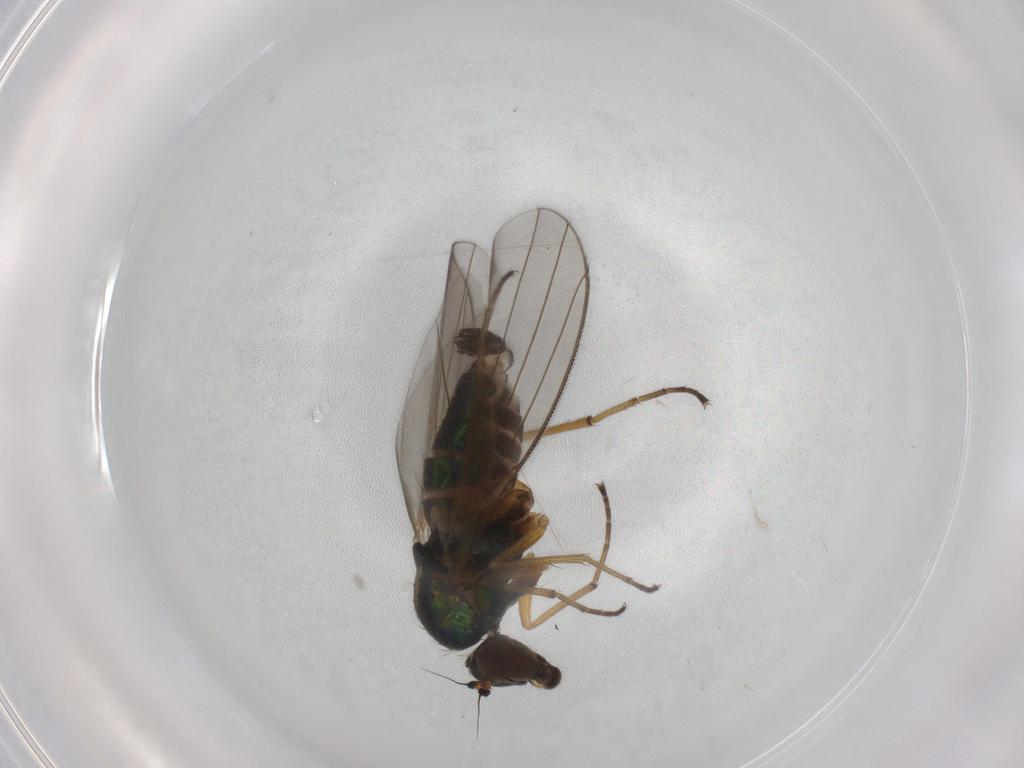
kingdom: Animalia
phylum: Arthropoda
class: Insecta
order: Diptera
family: Dolichopodidae
